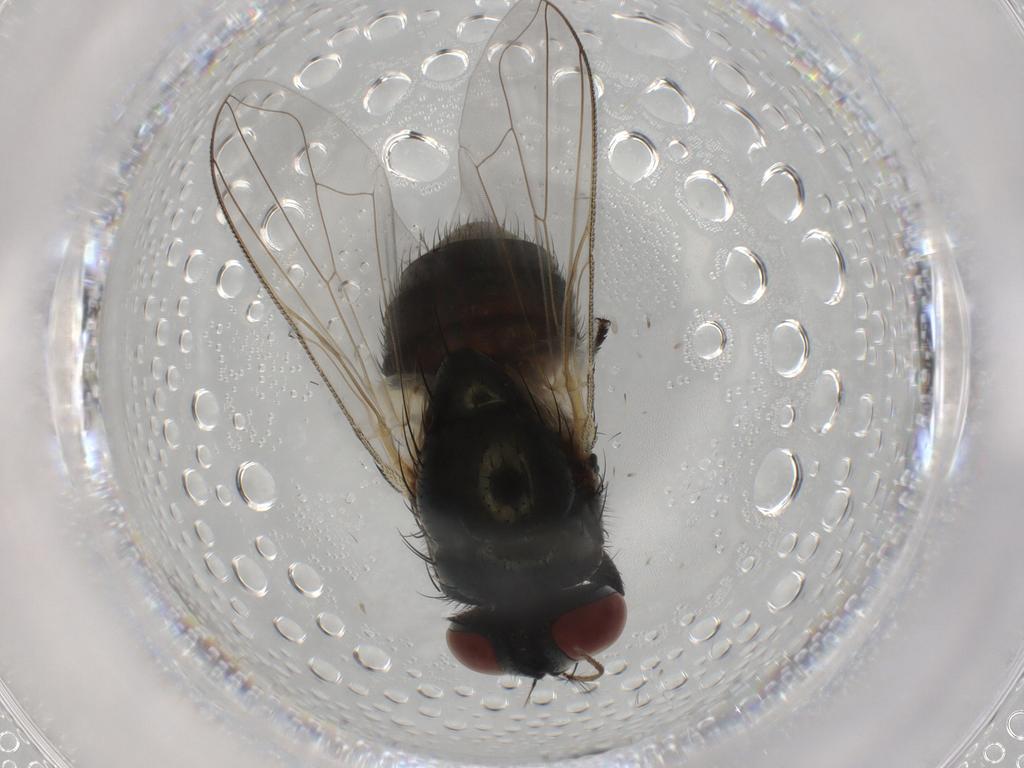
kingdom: Animalia
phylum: Arthropoda
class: Insecta
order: Diptera
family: Muscidae
